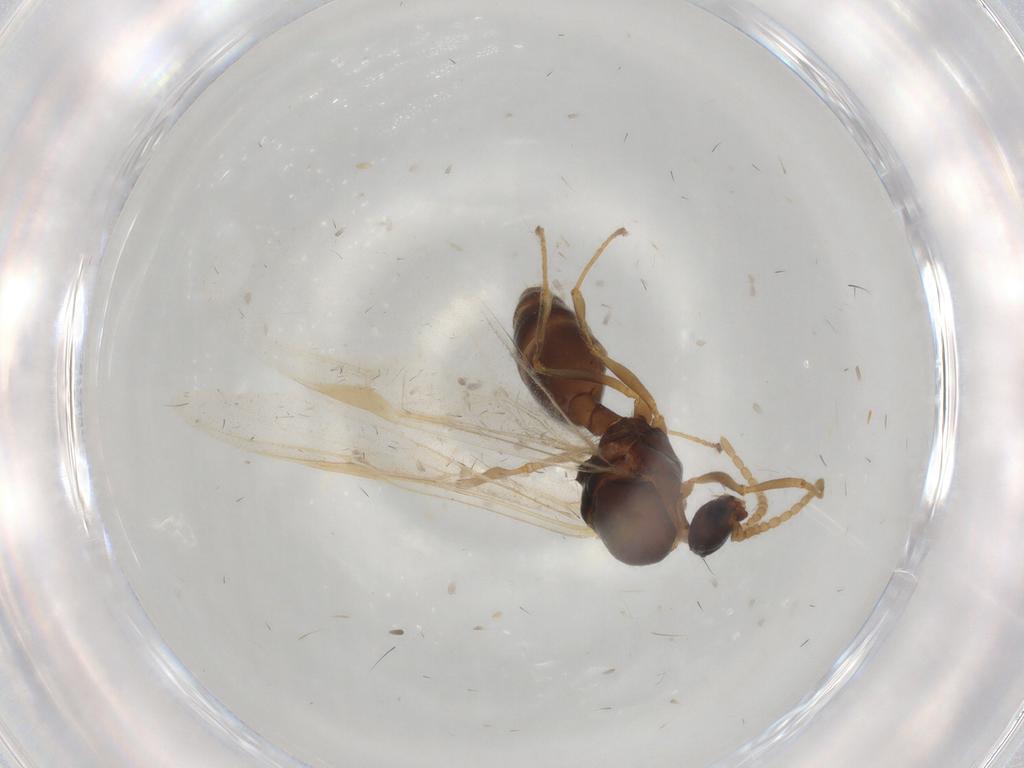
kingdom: Animalia
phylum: Arthropoda
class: Insecta
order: Hymenoptera
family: Formicidae
